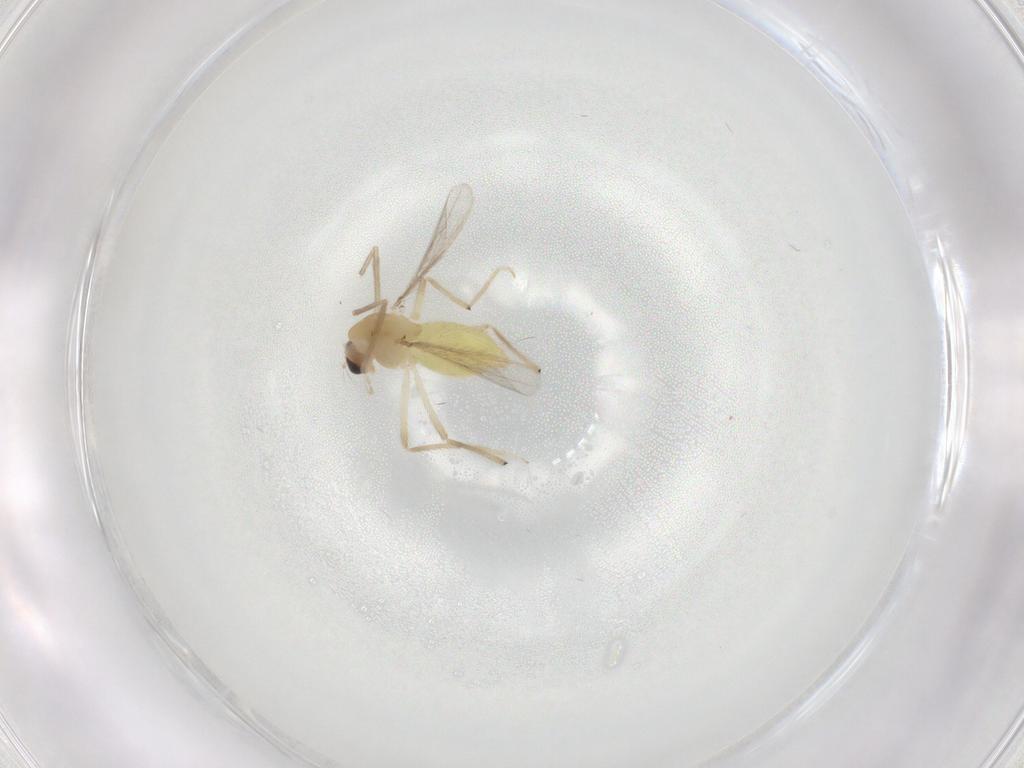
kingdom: Animalia
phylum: Arthropoda
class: Insecta
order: Diptera
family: Chironomidae
